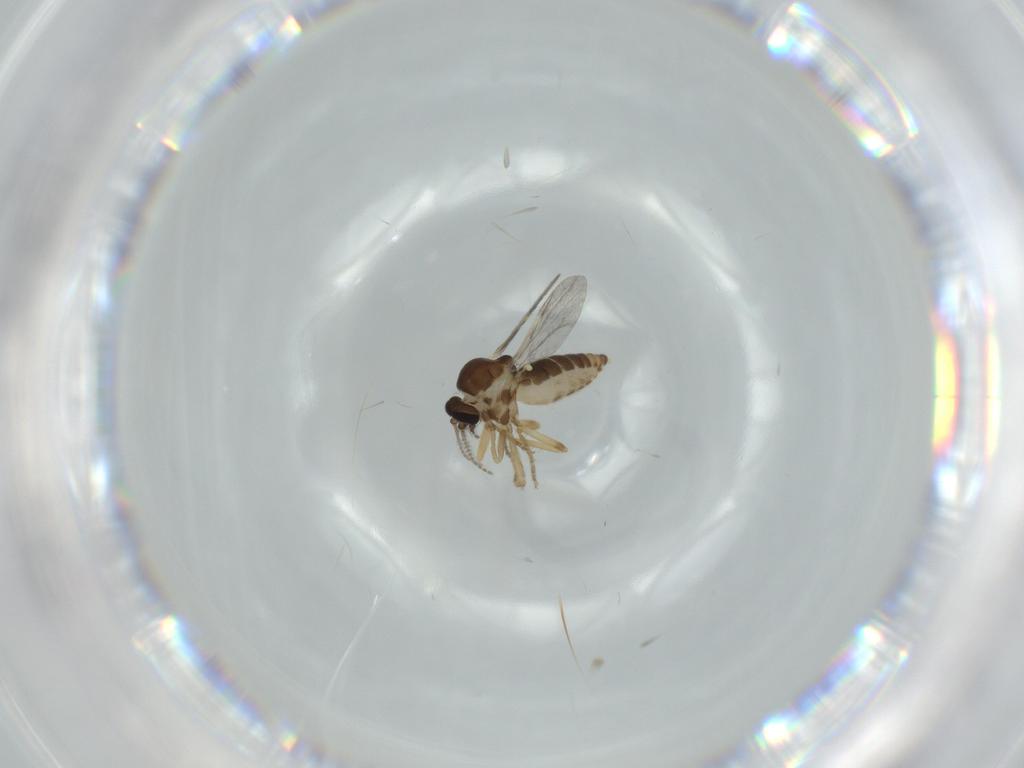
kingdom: Animalia
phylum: Arthropoda
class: Insecta
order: Diptera
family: Ceratopogonidae
